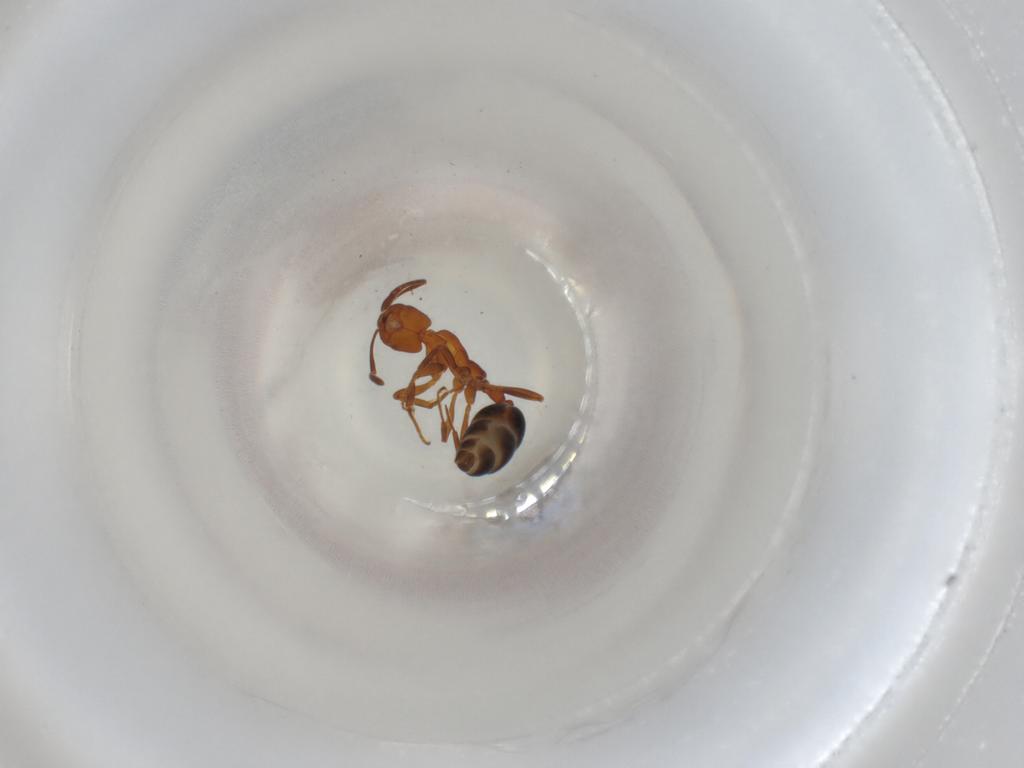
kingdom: Animalia
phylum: Arthropoda
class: Insecta
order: Hymenoptera
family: Formicidae
